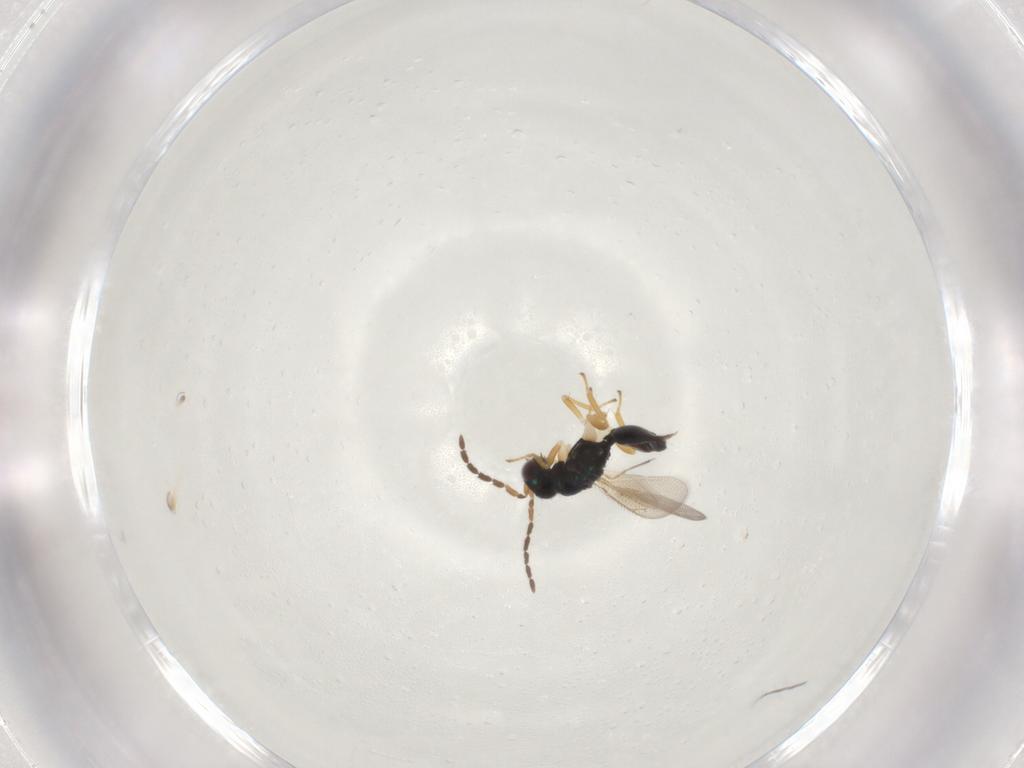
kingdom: Animalia
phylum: Arthropoda
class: Insecta
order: Hymenoptera
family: Eulophidae
